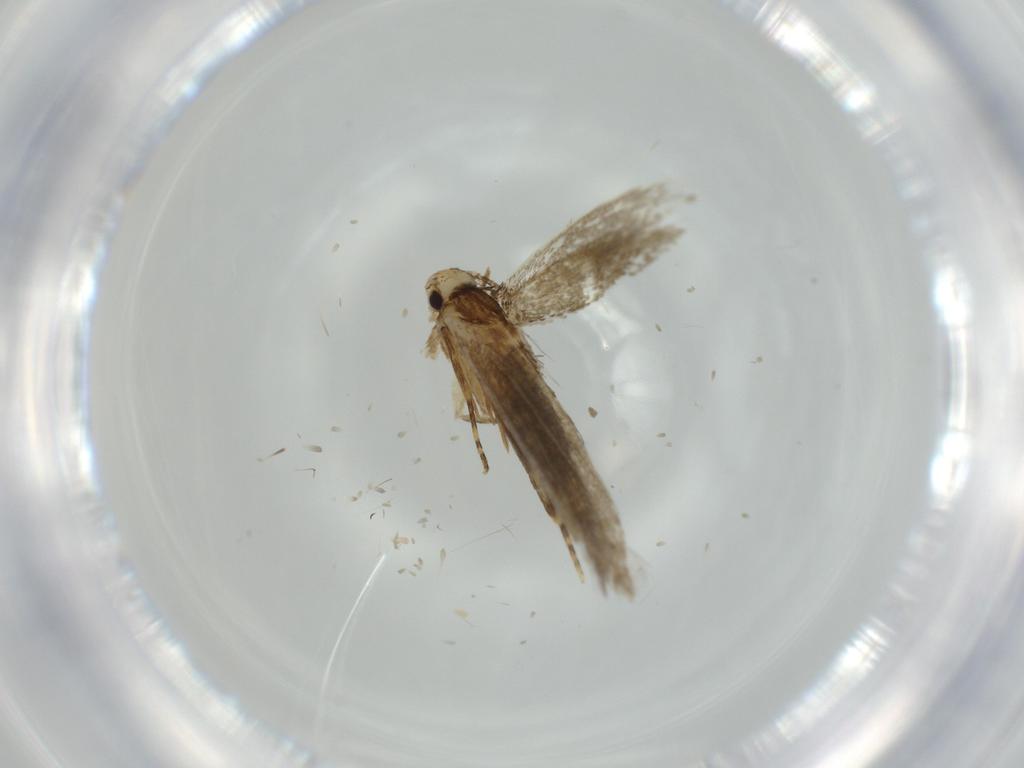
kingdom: Animalia
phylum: Arthropoda
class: Insecta
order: Lepidoptera
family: Tineidae
